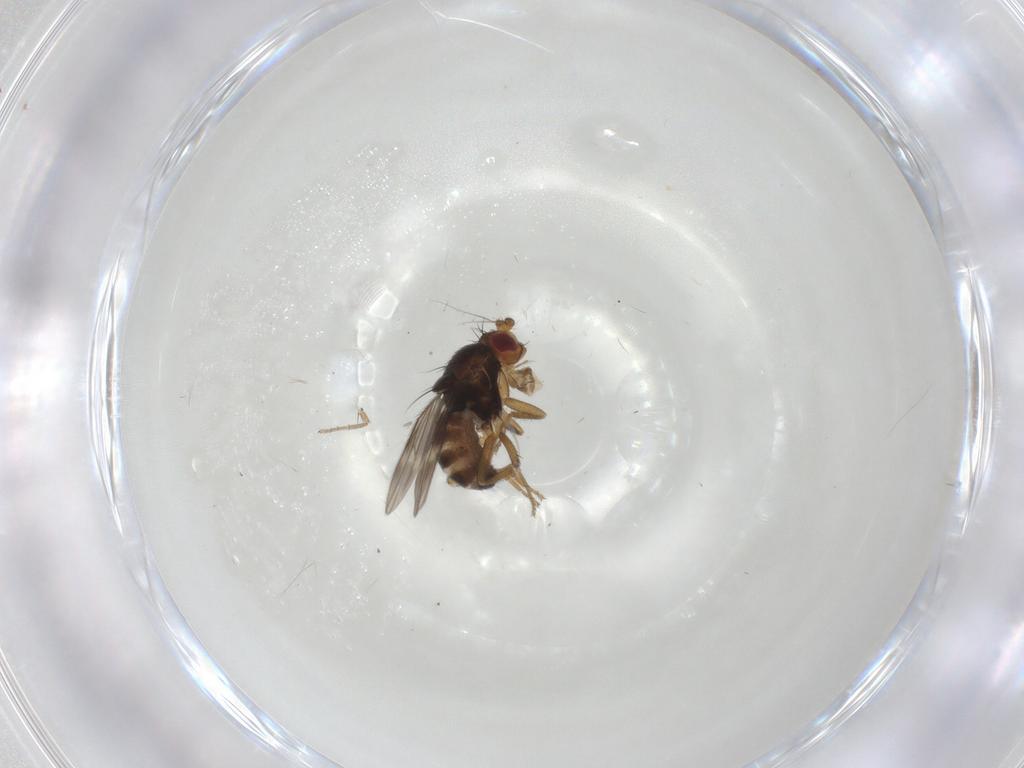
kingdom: Animalia
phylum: Arthropoda
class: Insecta
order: Diptera
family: Sphaeroceridae
